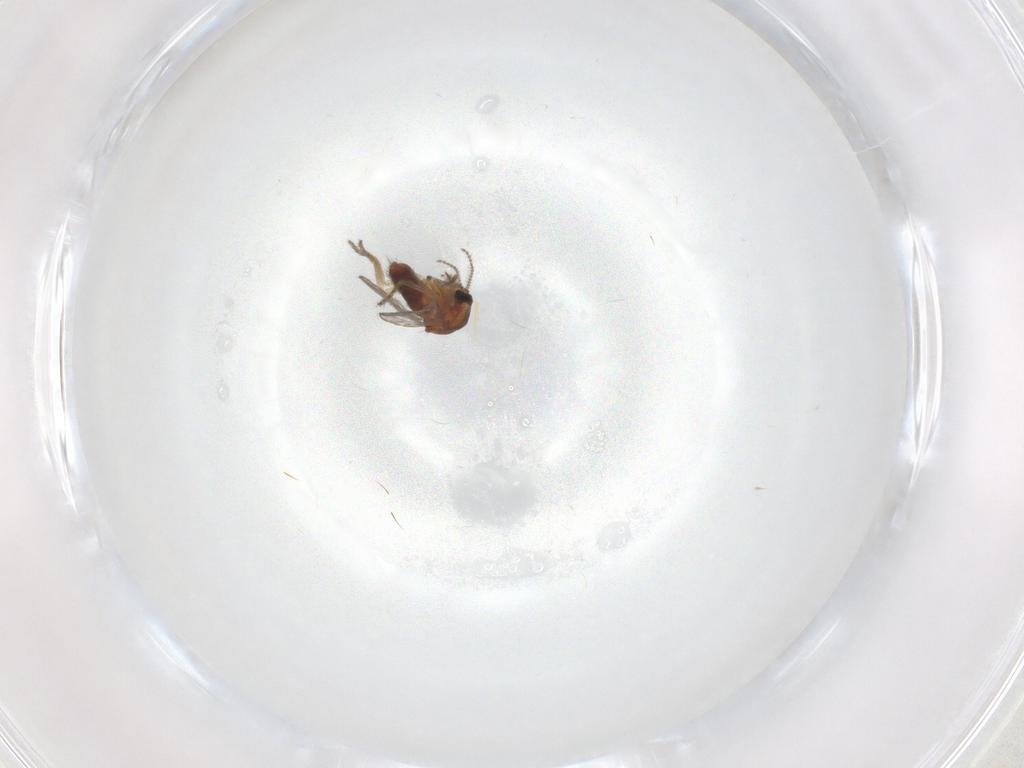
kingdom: Animalia
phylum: Arthropoda
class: Insecta
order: Diptera
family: Ceratopogonidae
